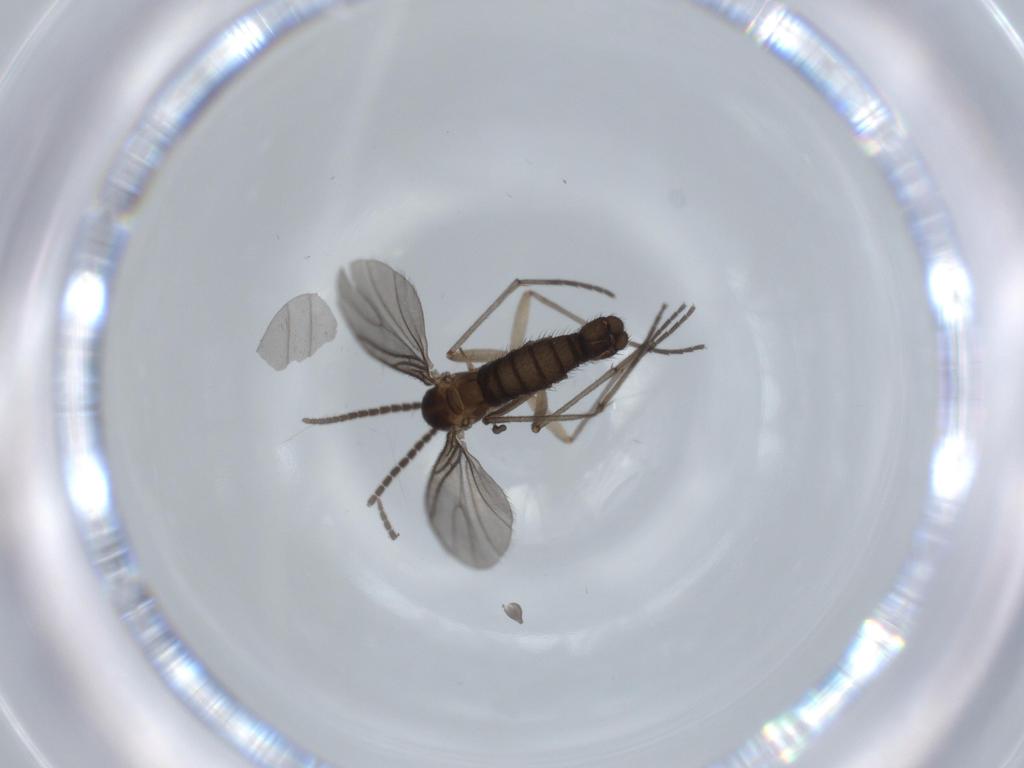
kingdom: Animalia
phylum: Arthropoda
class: Insecta
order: Diptera
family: Sciaridae
